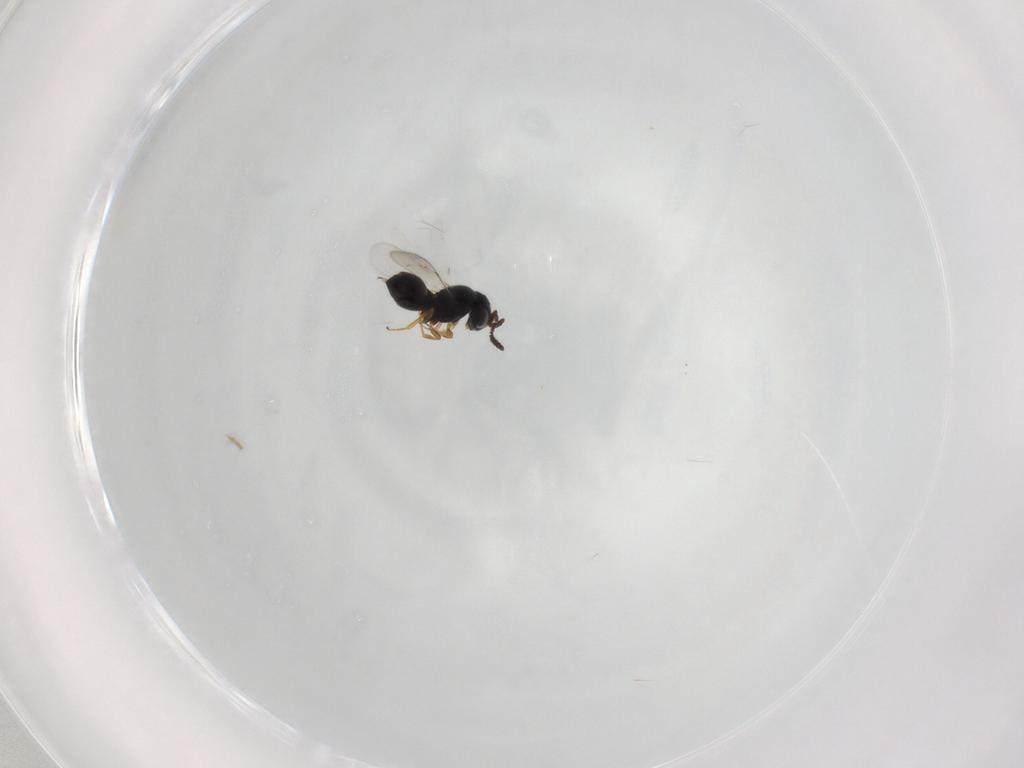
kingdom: Animalia
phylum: Arthropoda
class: Insecta
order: Hymenoptera
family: Scelionidae
